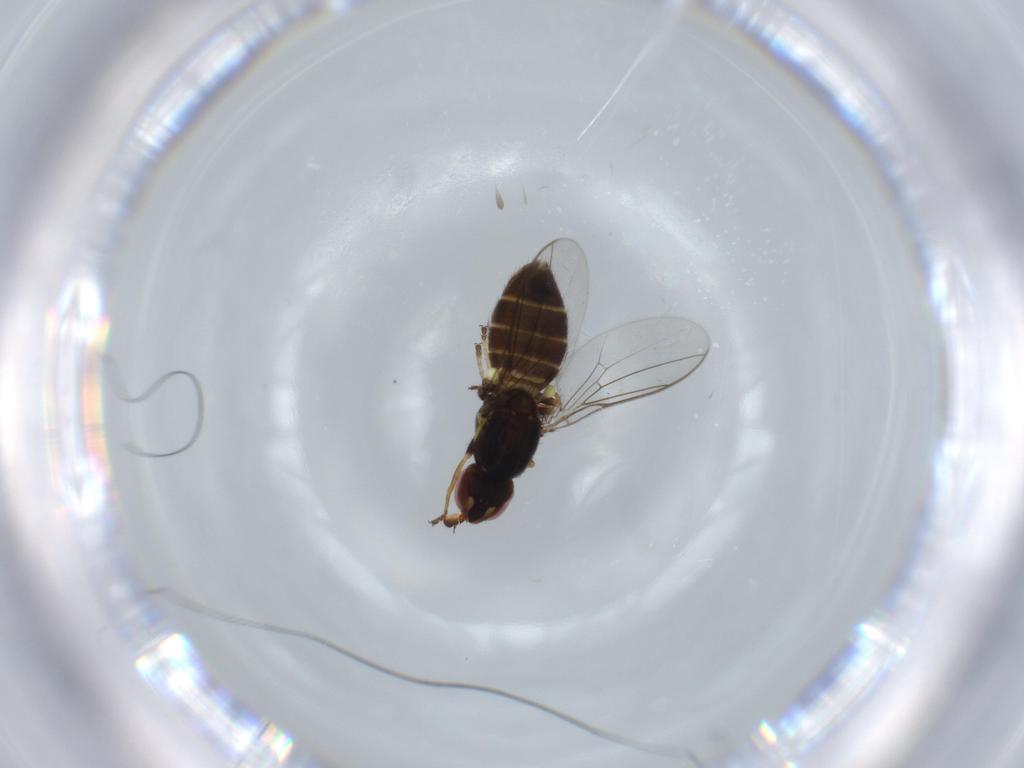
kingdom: Animalia
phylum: Arthropoda
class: Insecta
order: Diptera
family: Chloropidae
